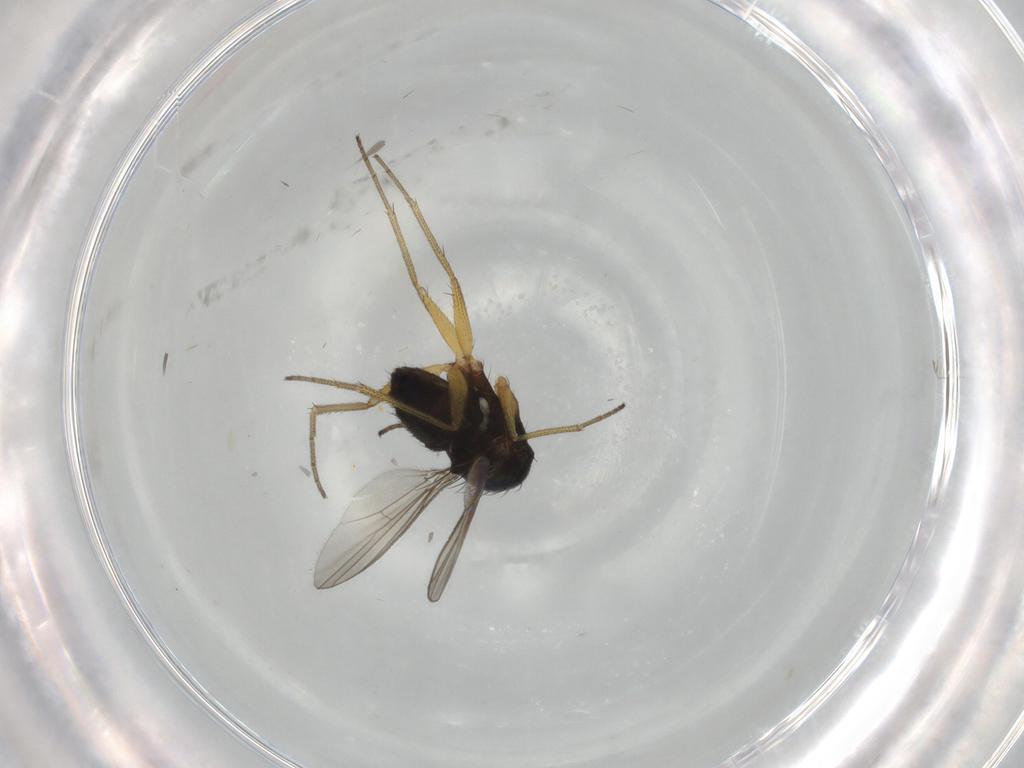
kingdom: Animalia
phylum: Arthropoda
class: Insecta
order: Diptera
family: Dolichopodidae
